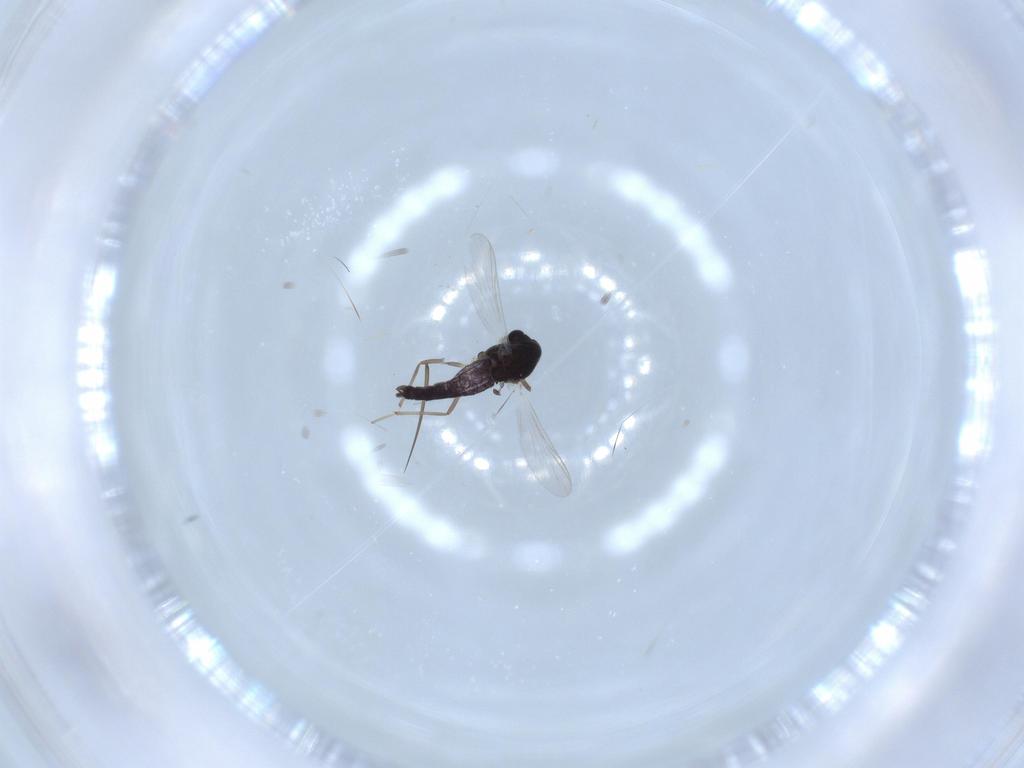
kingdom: Animalia
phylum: Arthropoda
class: Insecta
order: Diptera
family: Chironomidae
